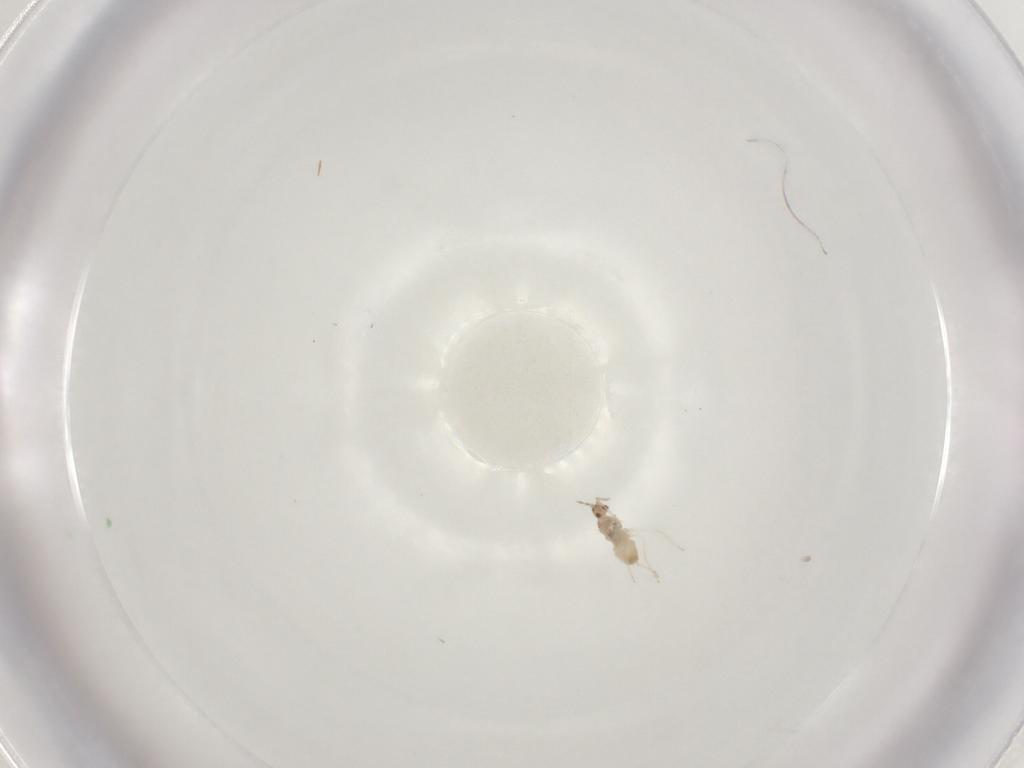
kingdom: Animalia
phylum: Arthropoda
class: Insecta
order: Diptera
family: Cecidomyiidae
